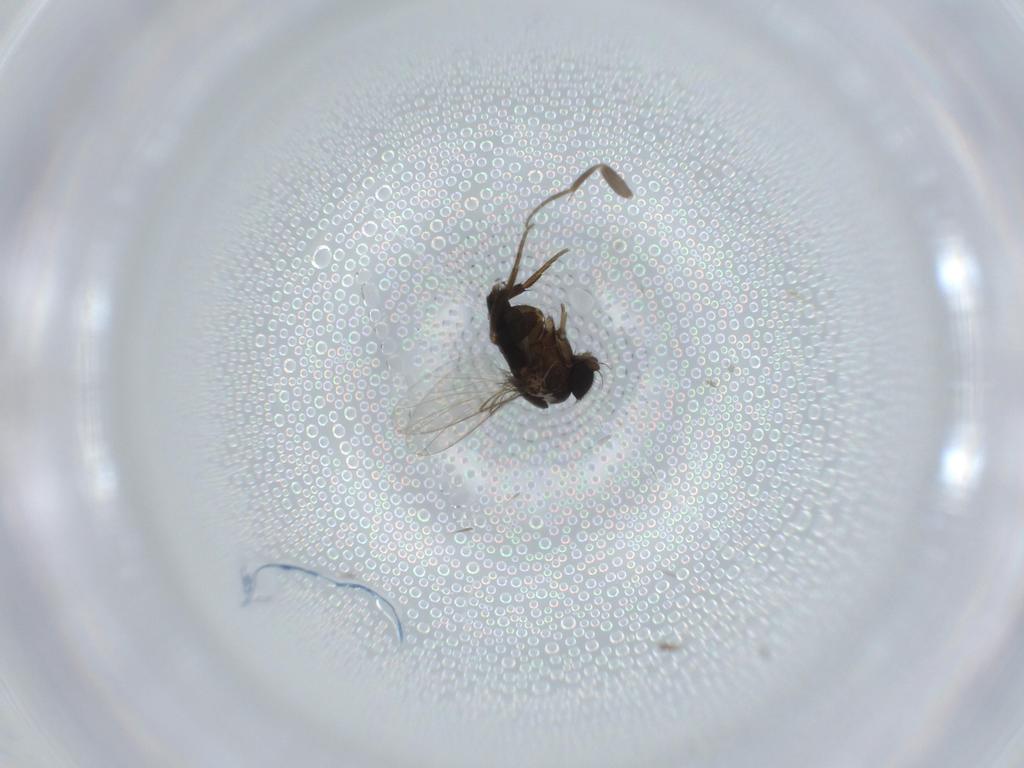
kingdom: Animalia
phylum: Arthropoda
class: Insecta
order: Diptera
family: Phoridae
